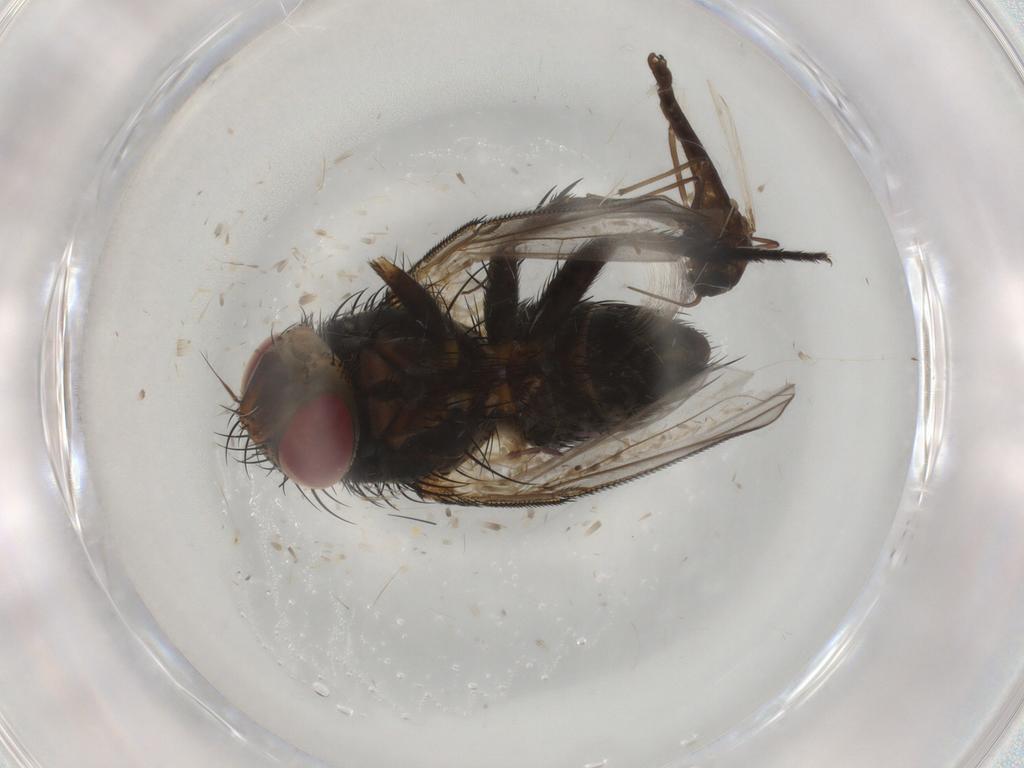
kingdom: Animalia
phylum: Arthropoda
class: Insecta
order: Diptera
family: Chironomidae
